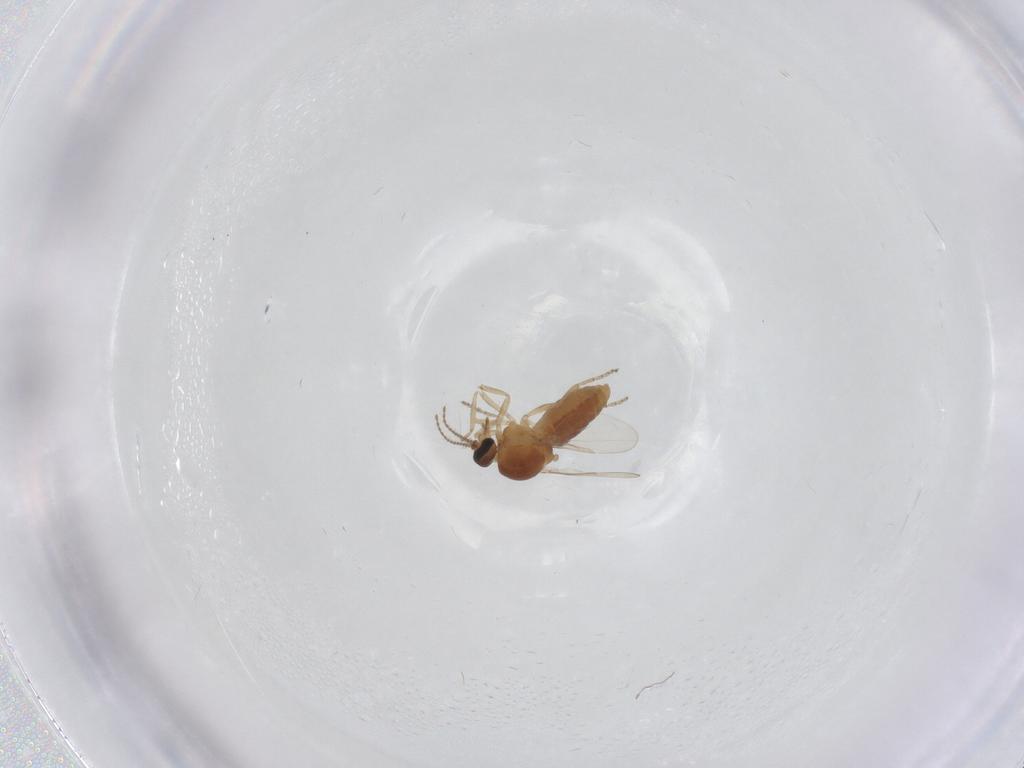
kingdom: Animalia
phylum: Arthropoda
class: Insecta
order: Diptera
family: Ceratopogonidae
